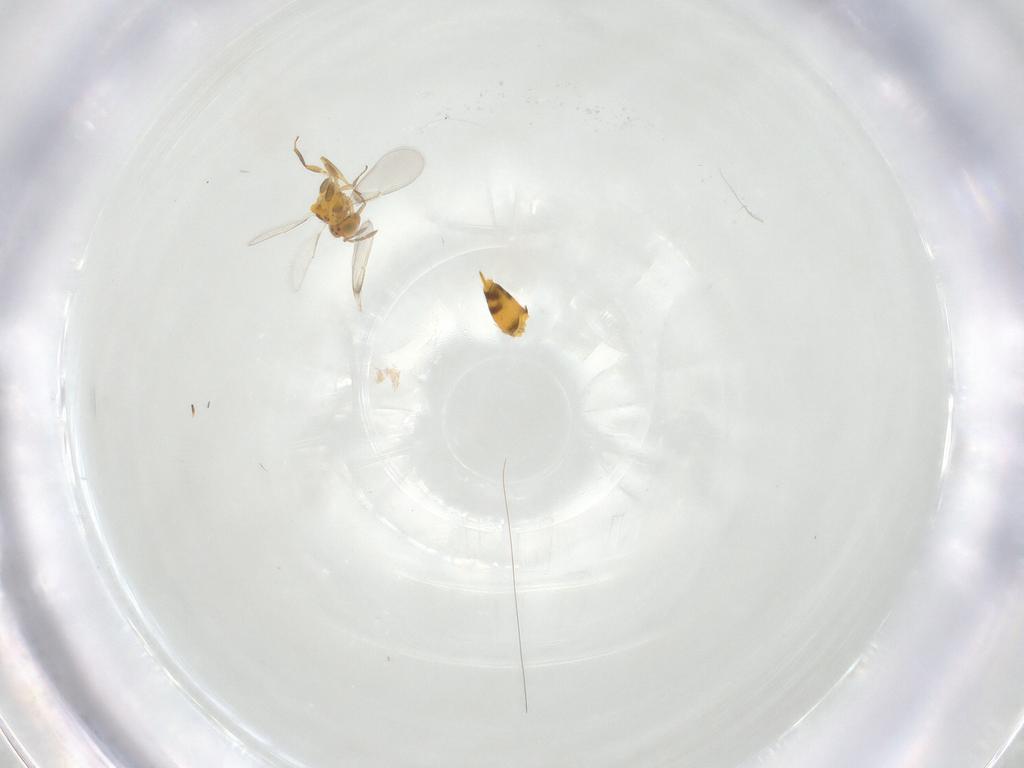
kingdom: Animalia
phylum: Arthropoda
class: Insecta
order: Hymenoptera
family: Aphelinidae
